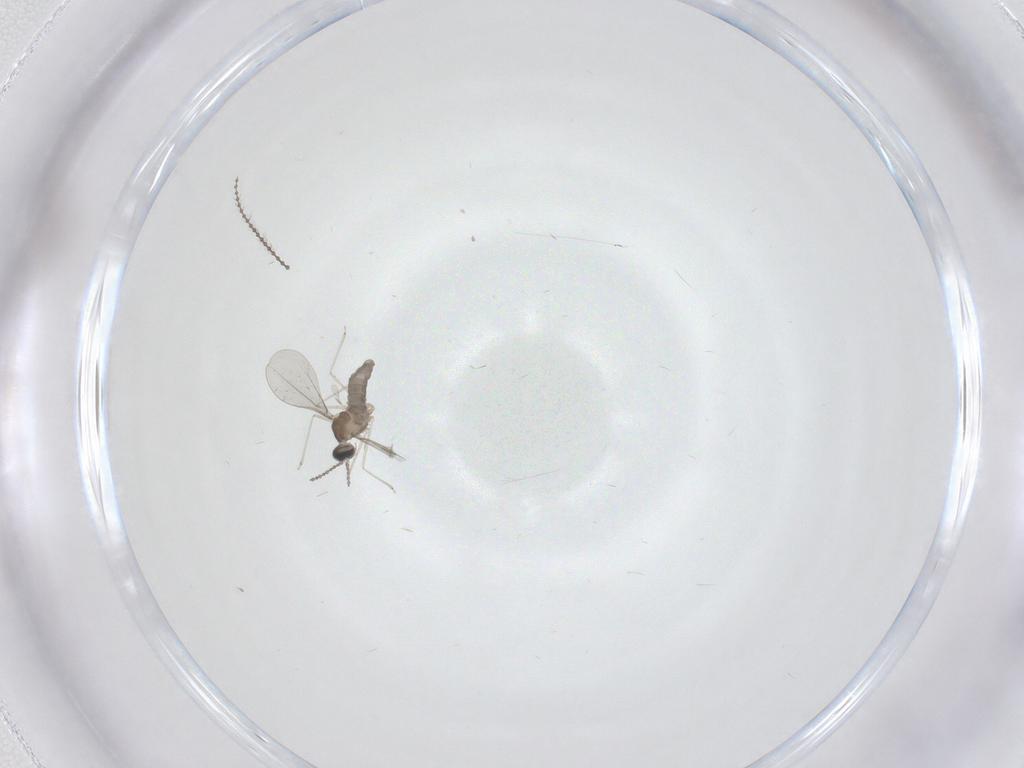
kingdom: Animalia
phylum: Arthropoda
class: Insecta
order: Diptera
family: Cecidomyiidae
